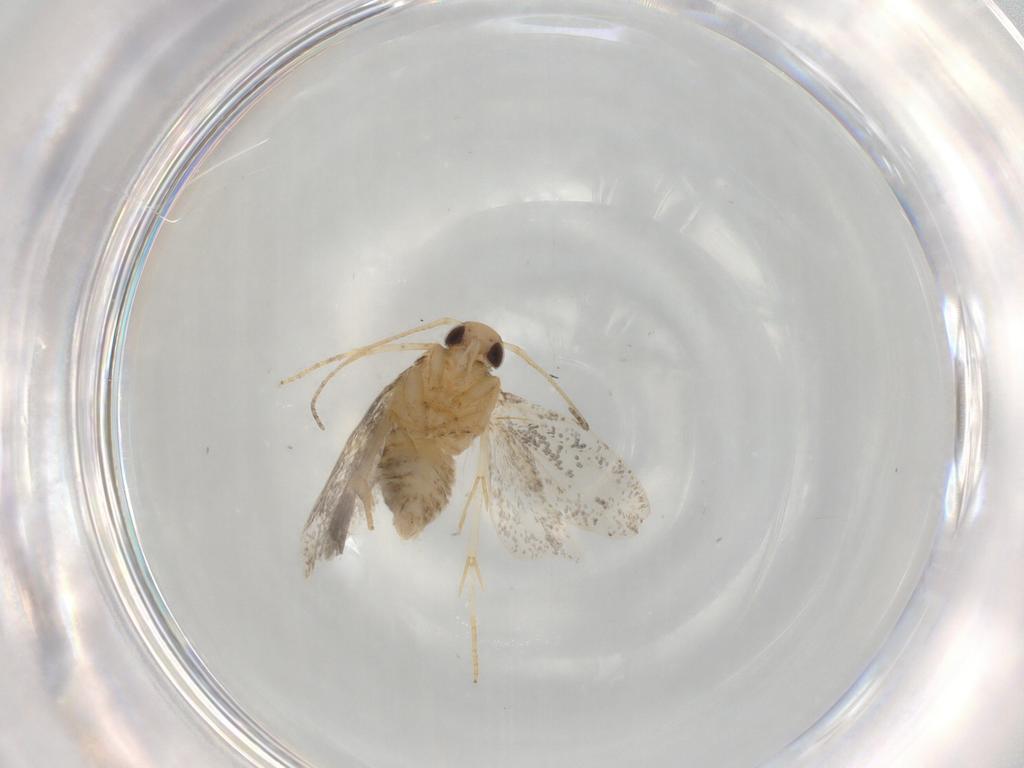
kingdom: Animalia
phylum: Arthropoda
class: Insecta
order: Lepidoptera
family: Gelechiidae
